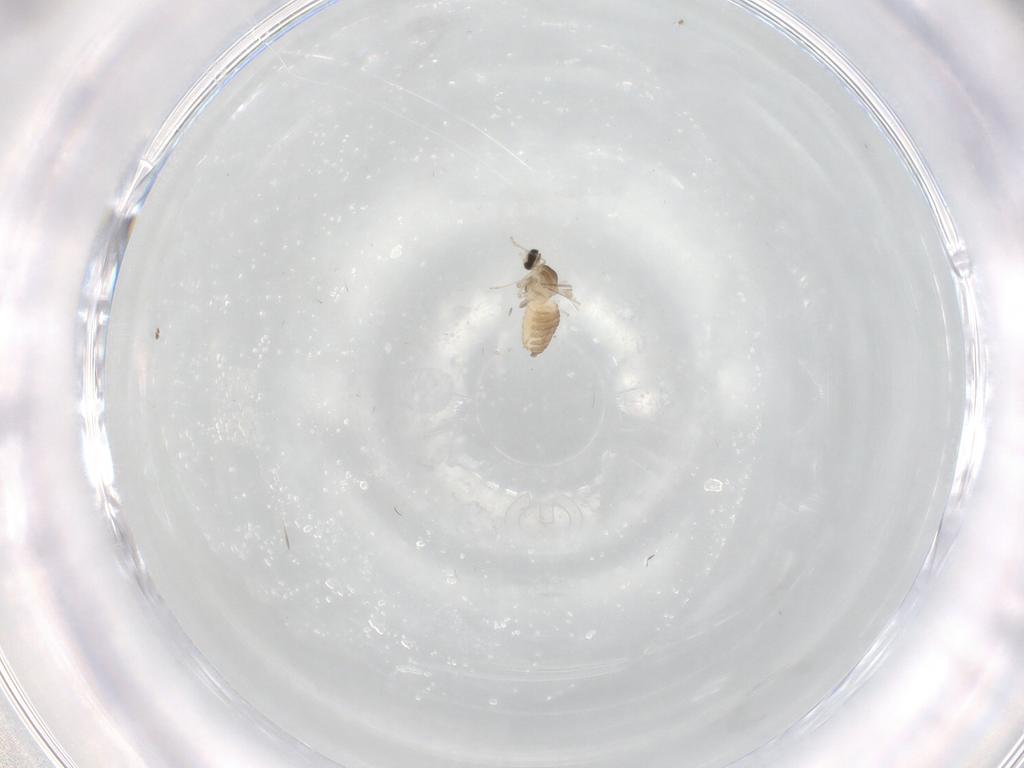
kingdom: Animalia
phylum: Arthropoda
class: Insecta
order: Diptera
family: Ceratopogonidae
